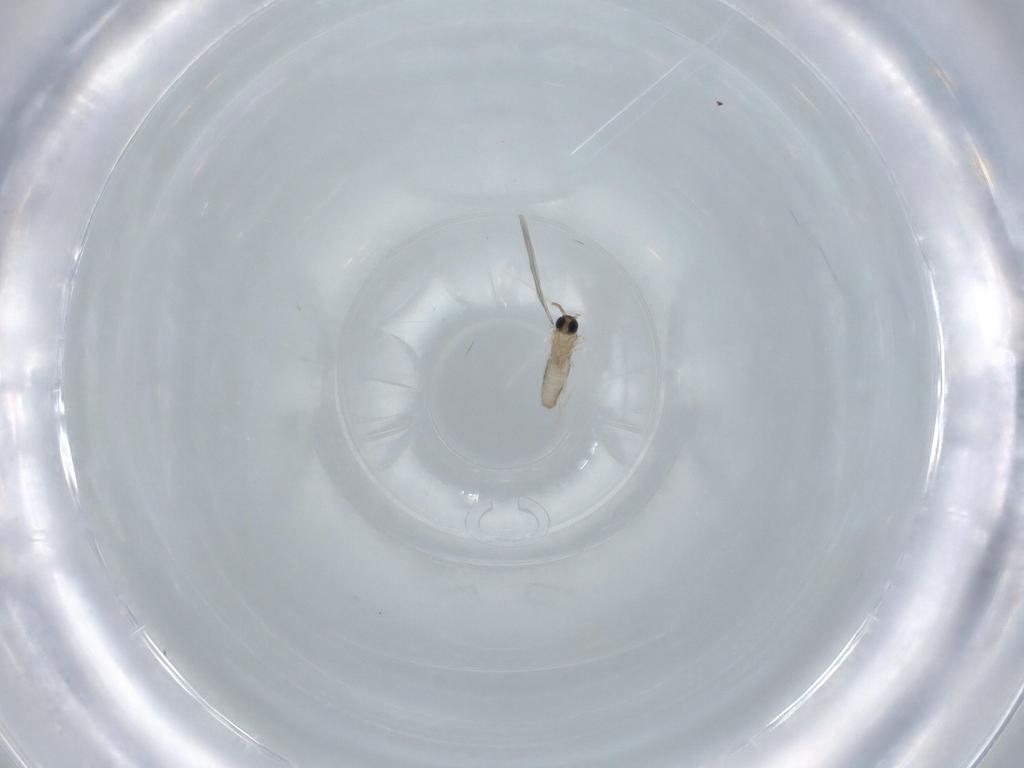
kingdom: Animalia
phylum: Arthropoda
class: Insecta
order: Diptera
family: Cecidomyiidae
